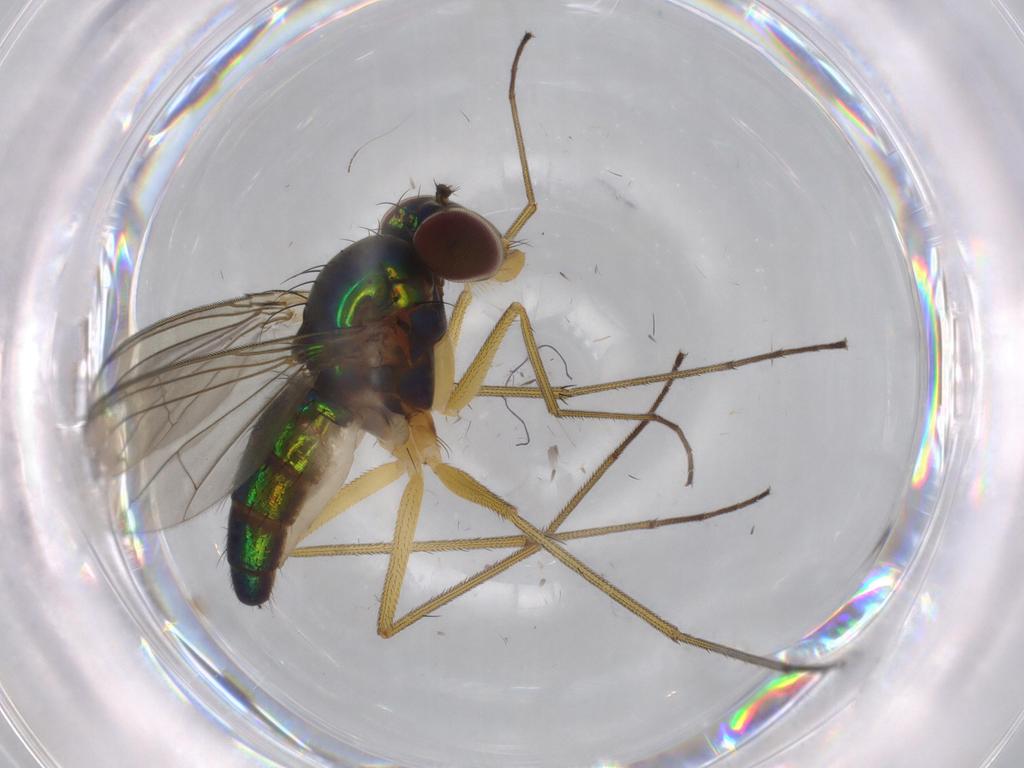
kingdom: Animalia
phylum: Arthropoda
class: Insecta
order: Diptera
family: Dolichopodidae
